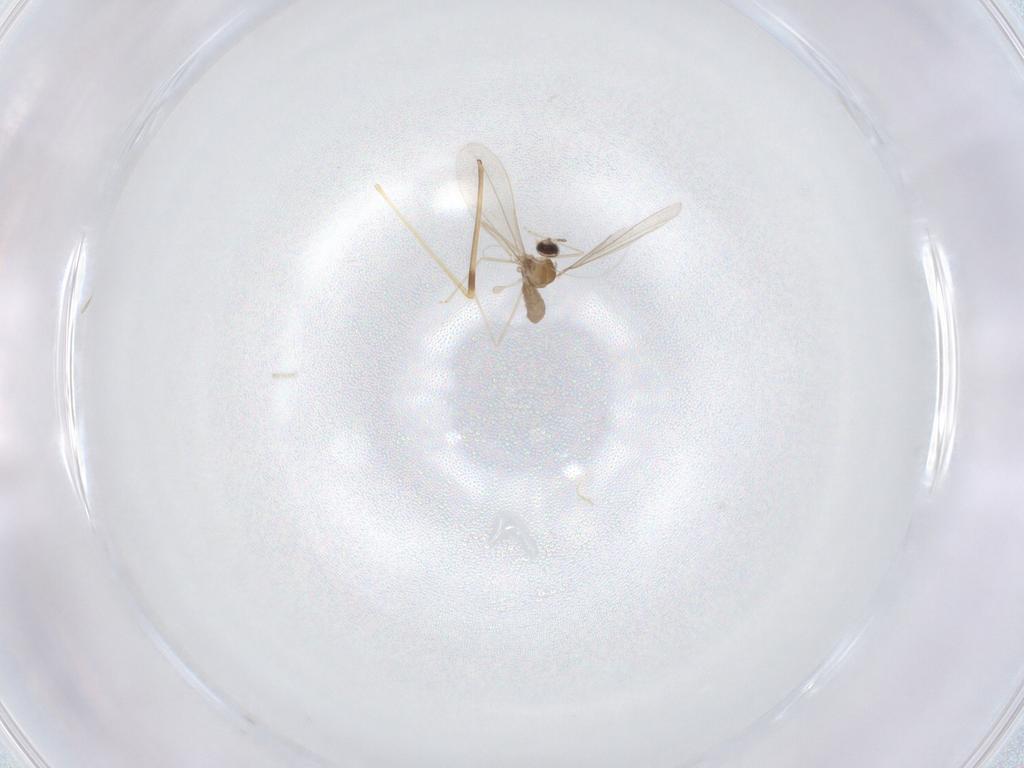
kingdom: Animalia
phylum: Arthropoda
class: Insecta
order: Diptera
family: Cecidomyiidae
